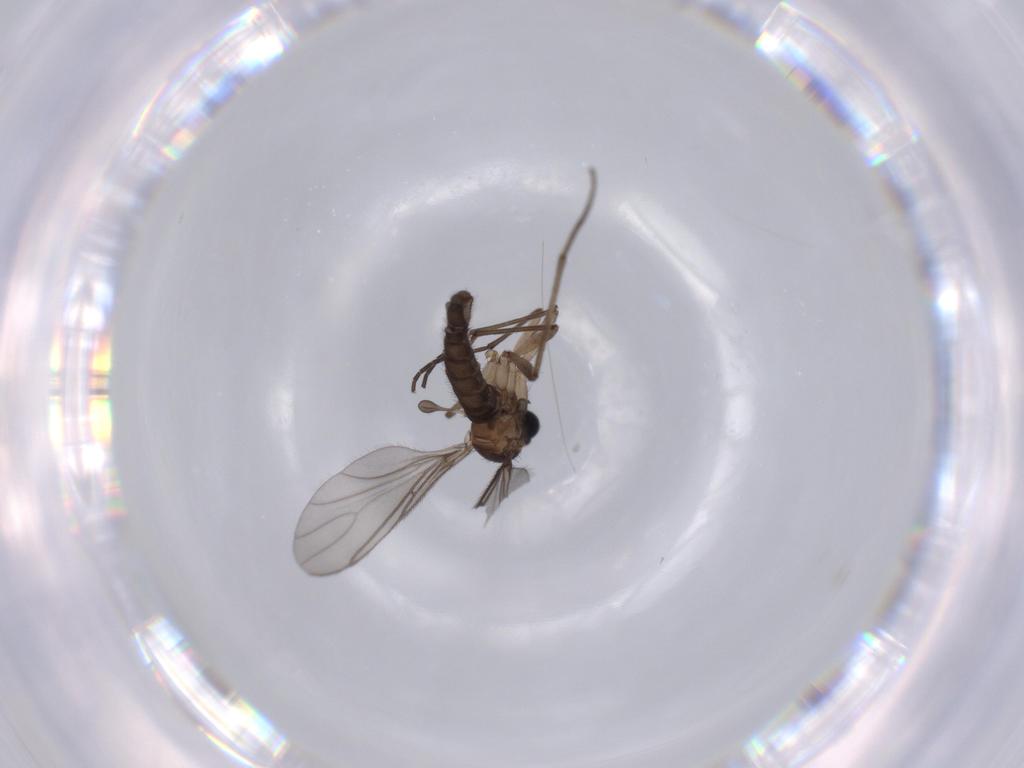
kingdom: Animalia
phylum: Arthropoda
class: Insecta
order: Diptera
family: Sciaridae
